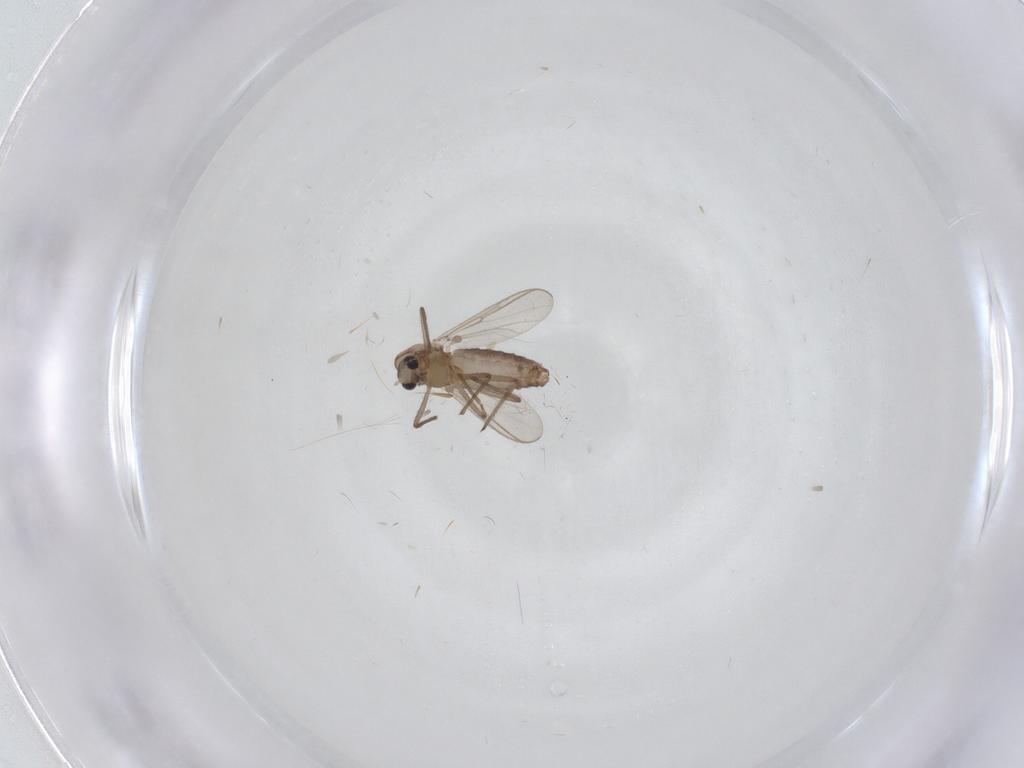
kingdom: Animalia
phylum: Arthropoda
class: Insecta
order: Diptera
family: Chironomidae
